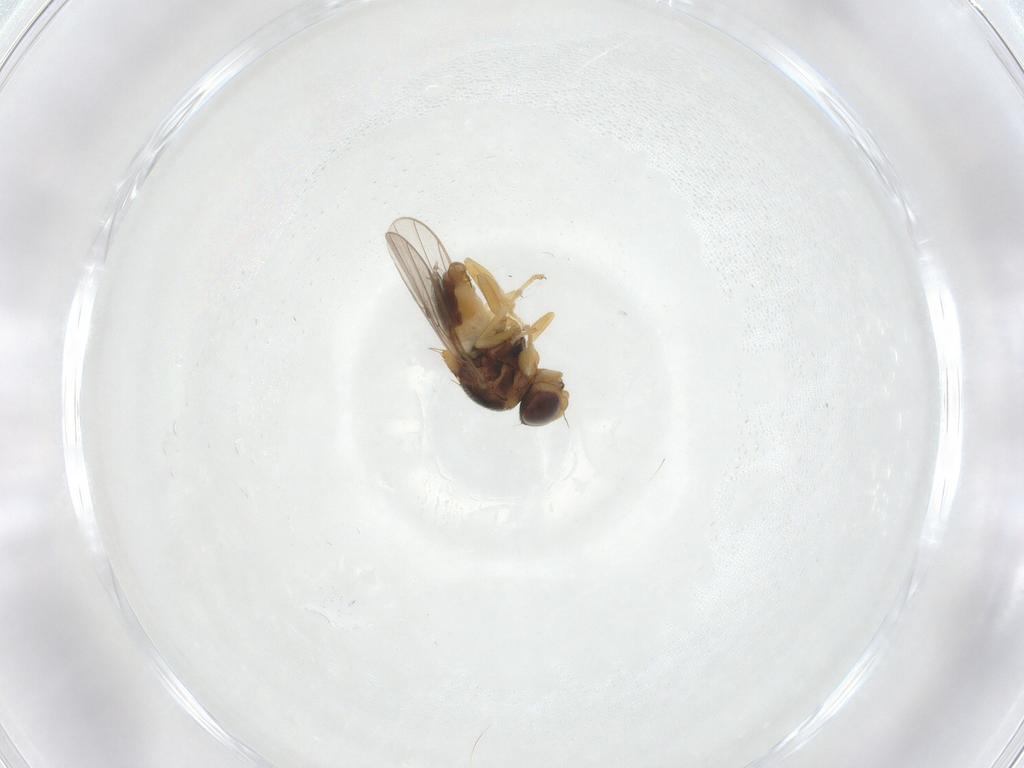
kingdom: Animalia
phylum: Arthropoda
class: Insecta
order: Diptera
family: Chloropidae
